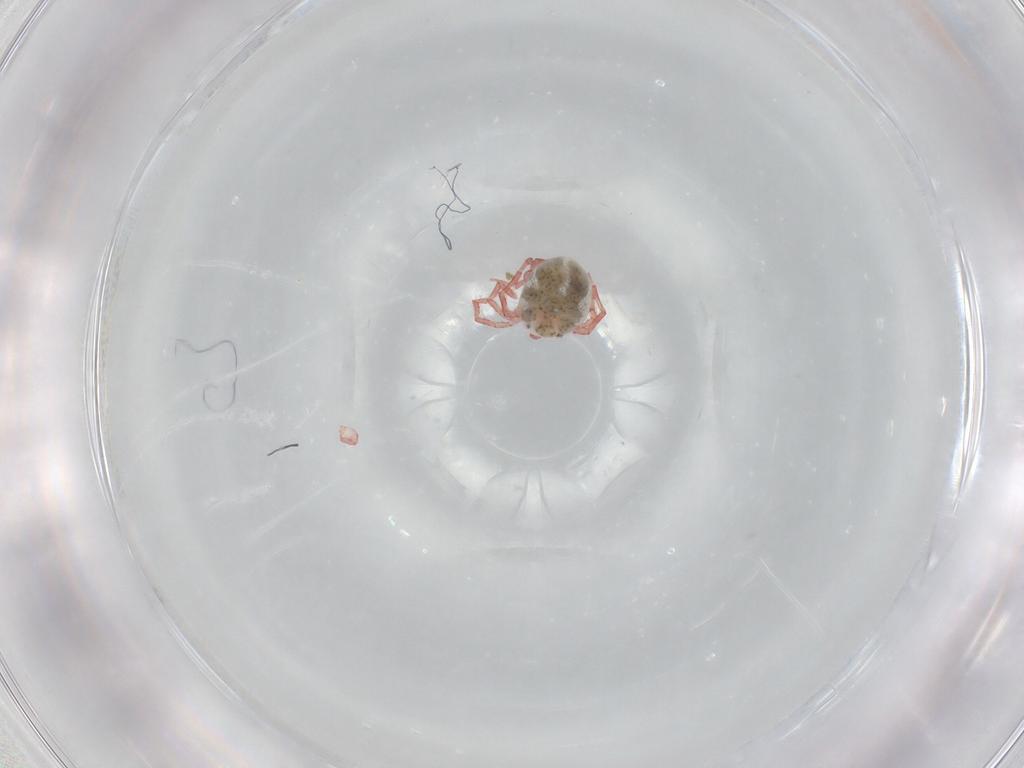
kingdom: Animalia
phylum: Arthropoda
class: Arachnida
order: Trombidiformes
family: Pionidae
